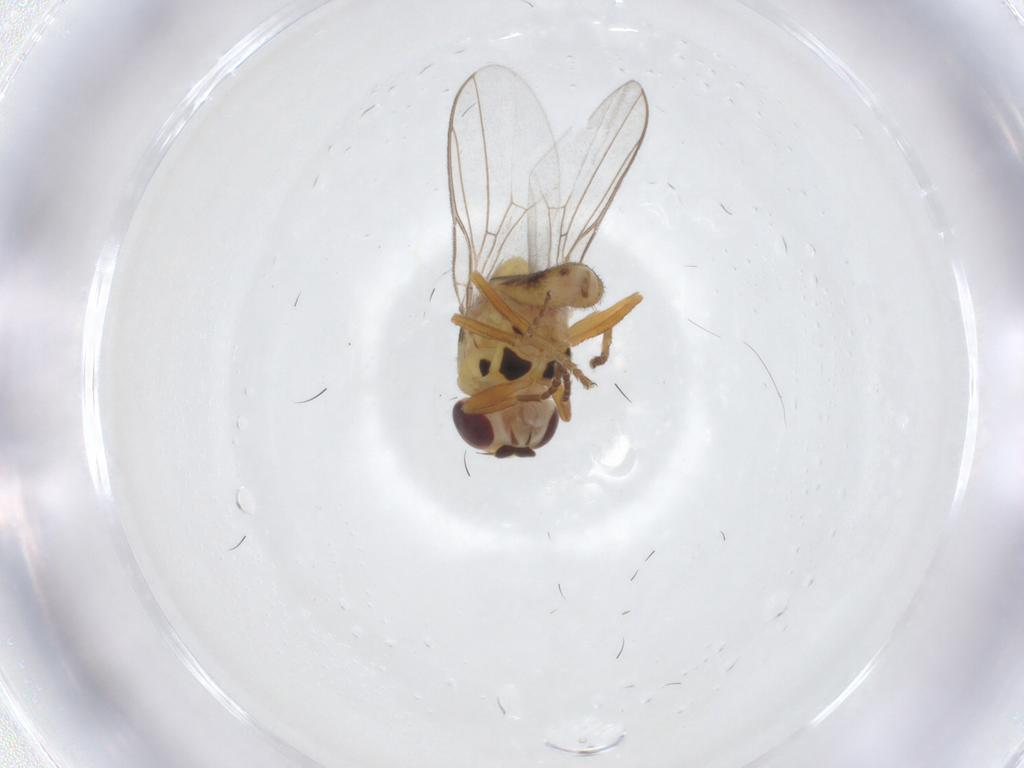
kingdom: Animalia
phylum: Arthropoda
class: Insecta
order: Diptera
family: Chloropidae
